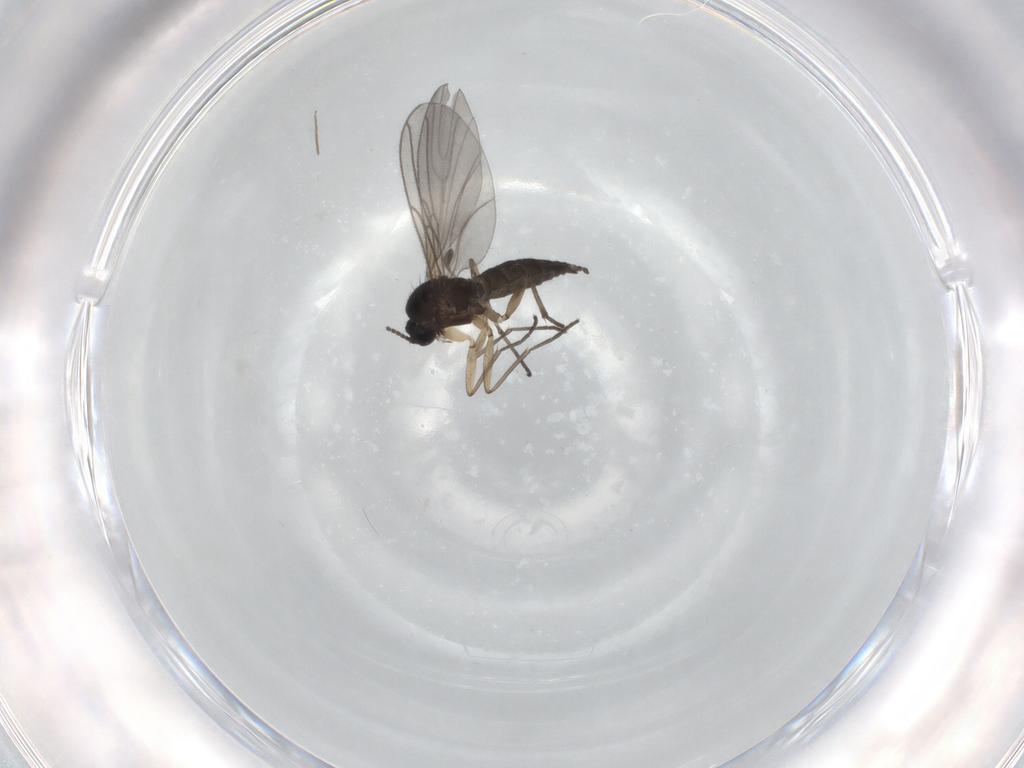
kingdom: Animalia
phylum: Arthropoda
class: Insecta
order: Diptera
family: Sciaridae
